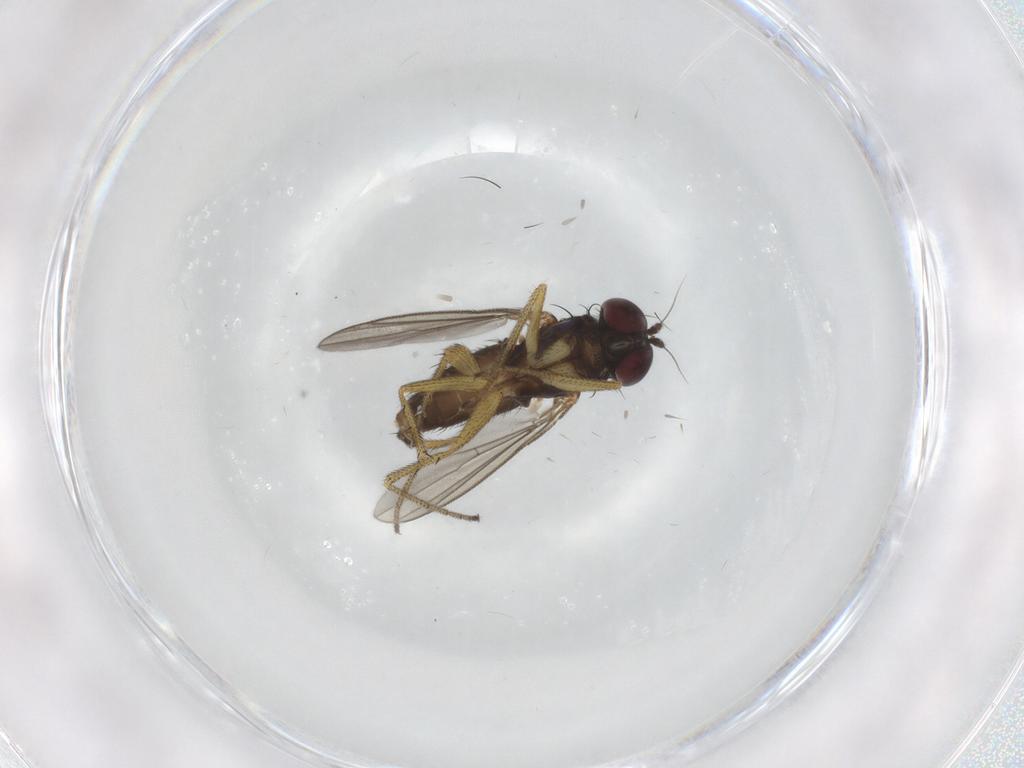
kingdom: Animalia
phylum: Arthropoda
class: Insecta
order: Diptera
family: Dolichopodidae
